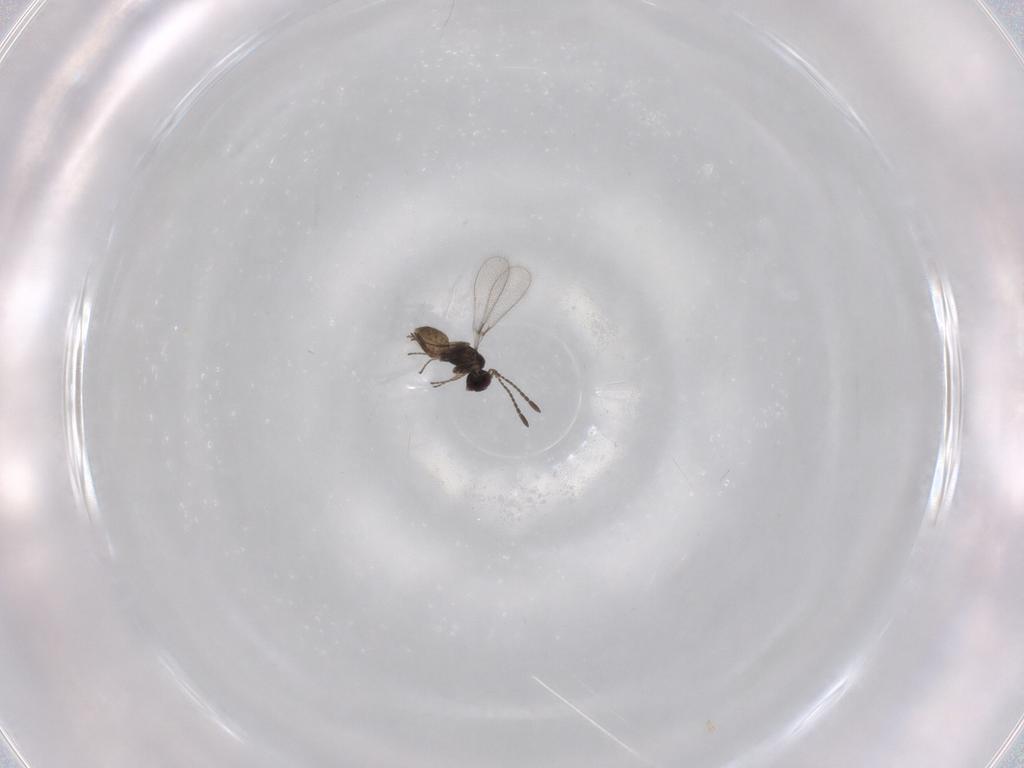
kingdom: Animalia
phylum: Arthropoda
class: Insecta
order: Hymenoptera
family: Mymaridae
